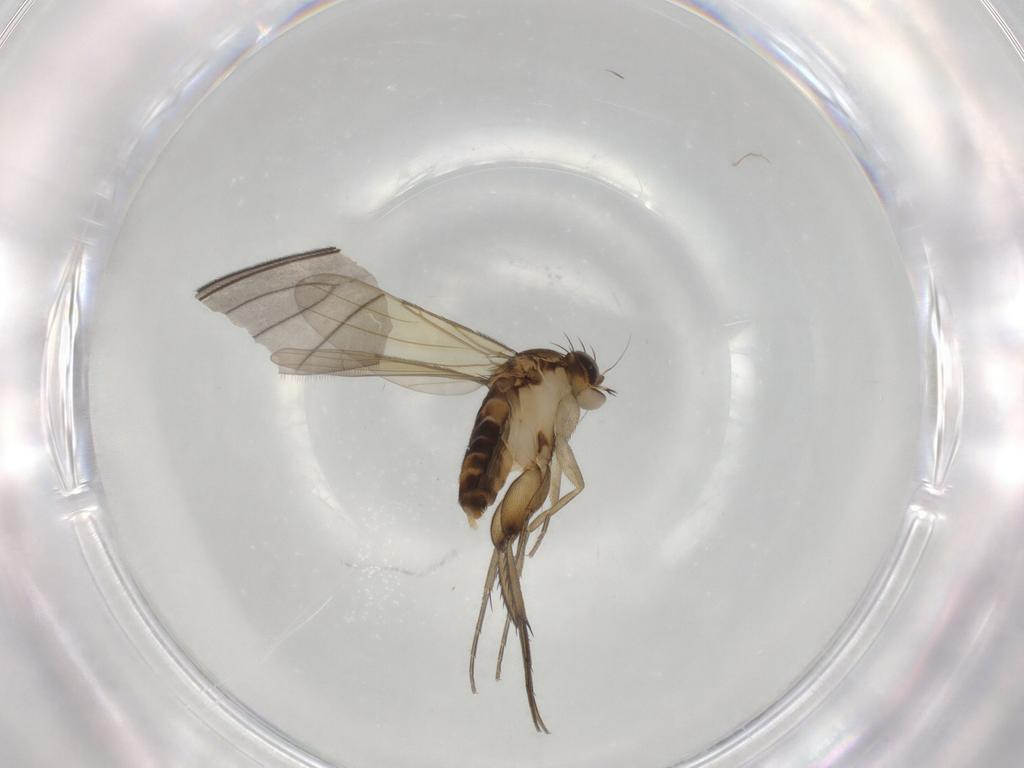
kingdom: Animalia
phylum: Arthropoda
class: Insecta
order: Diptera
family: Phoridae
